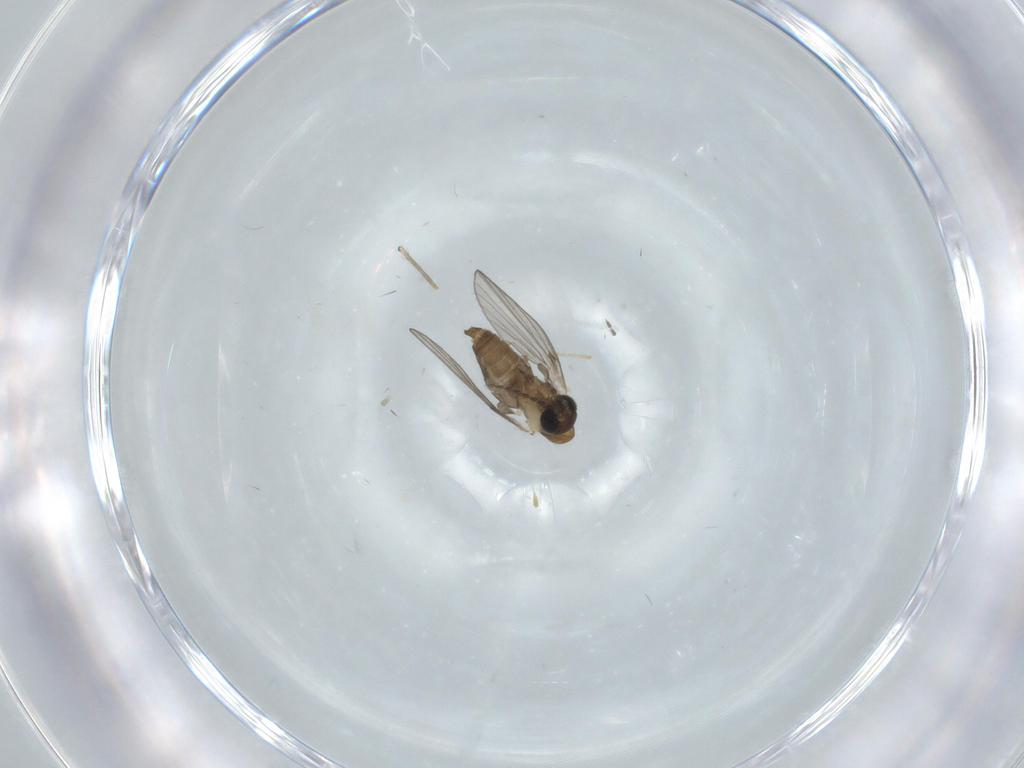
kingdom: Animalia
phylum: Arthropoda
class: Insecta
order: Diptera
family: Psychodidae
